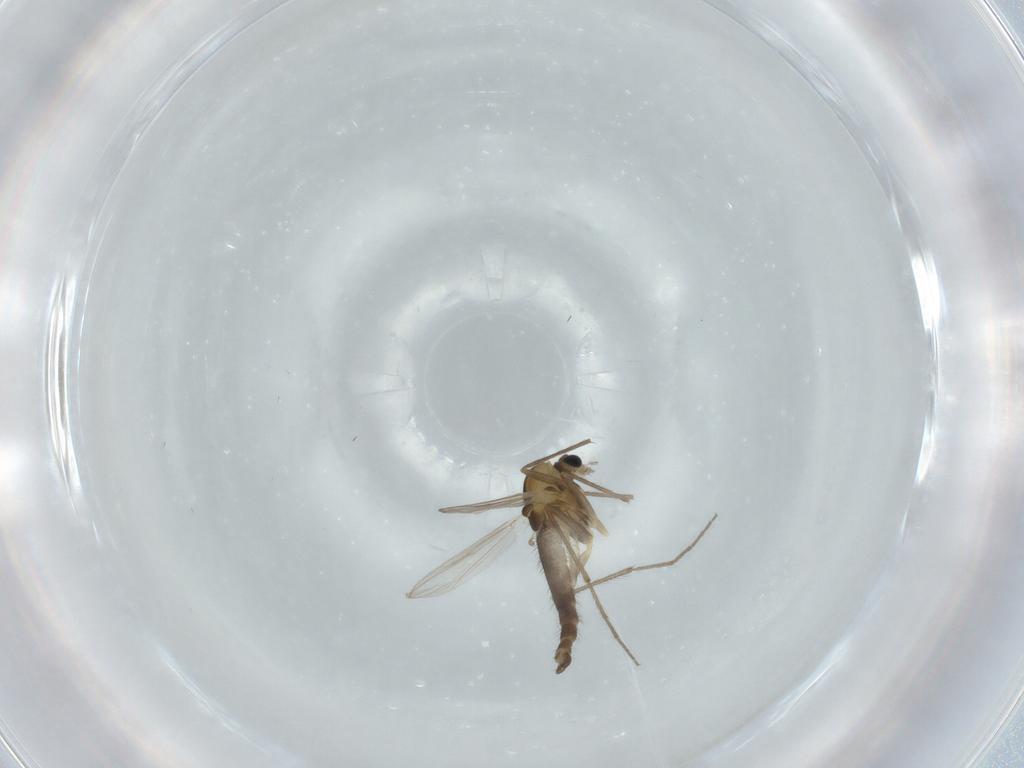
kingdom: Animalia
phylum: Arthropoda
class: Insecta
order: Diptera
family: Chironomidae
